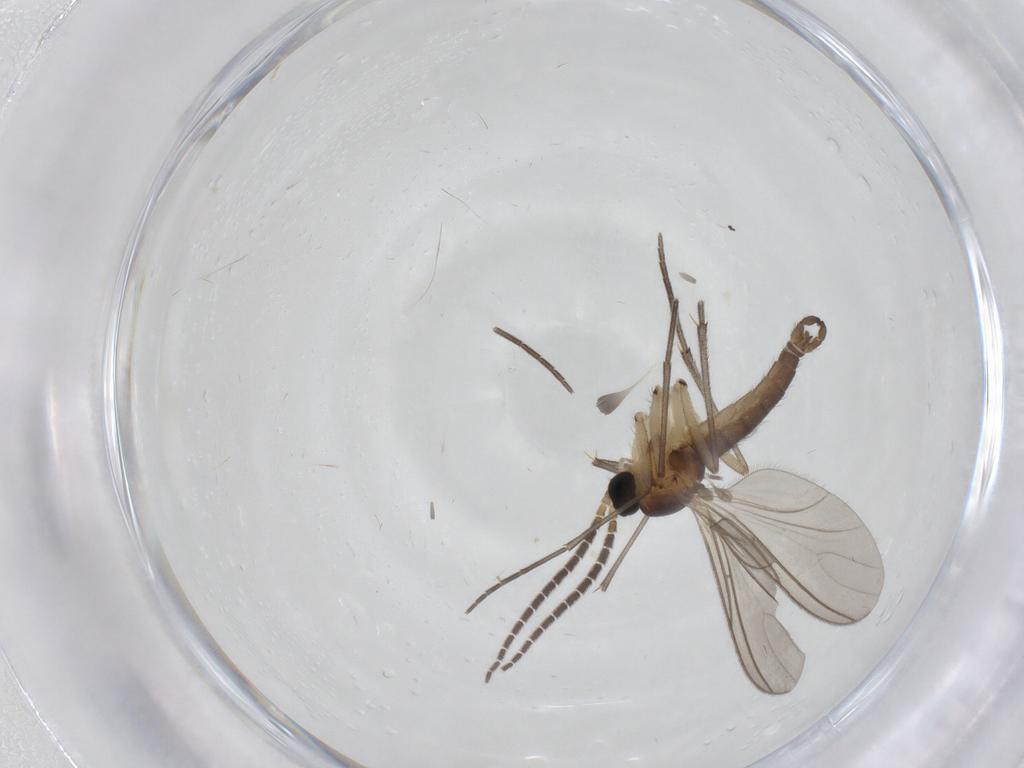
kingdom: Animalia
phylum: Arthropoda
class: Insecta
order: Diptera
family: Sciaridae
